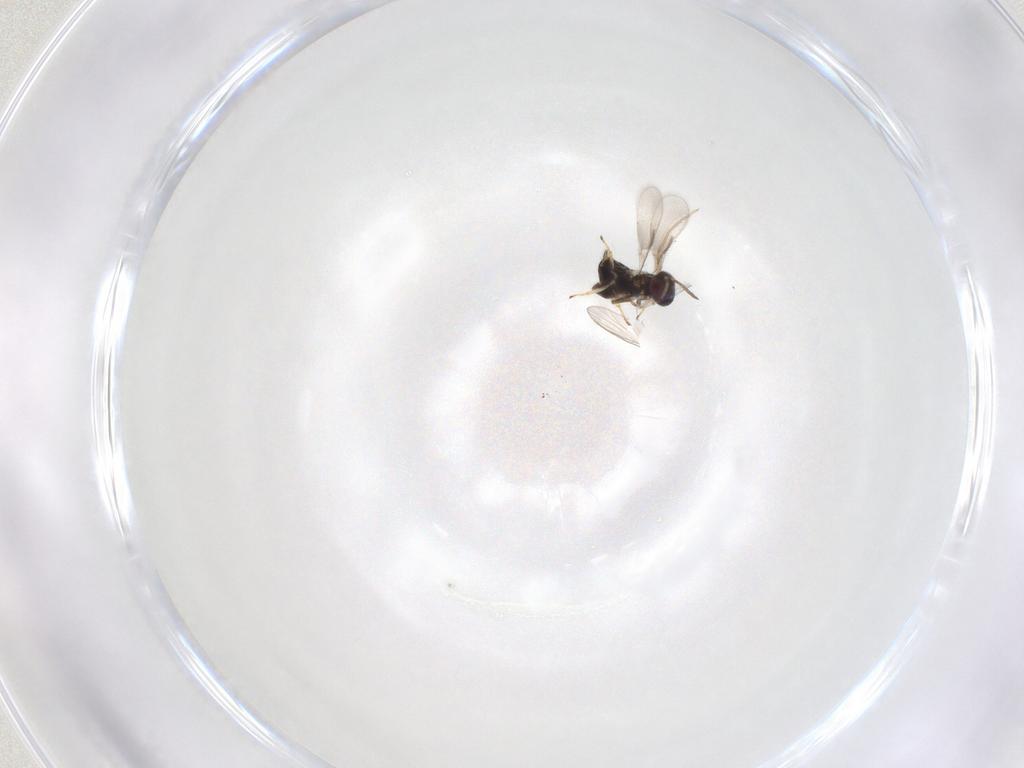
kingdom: Animalia
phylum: Arthropoda
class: Insecta
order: Hymenoptera
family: Aphelinidae
